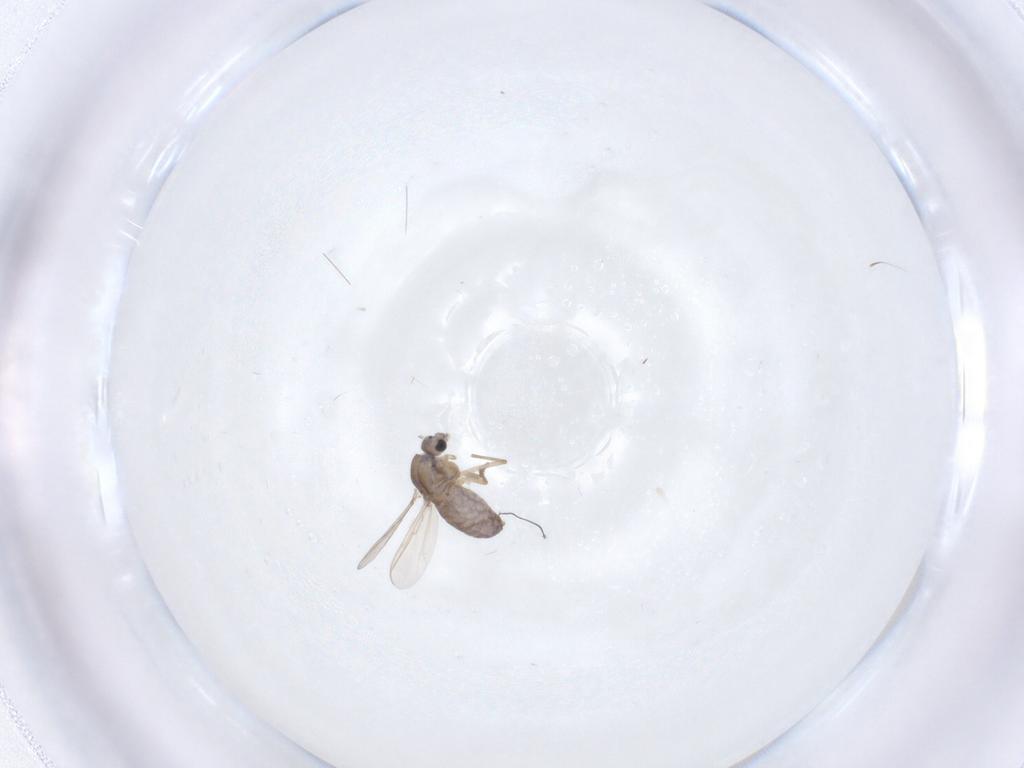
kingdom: Animalia
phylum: Arthropoda
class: Insecta
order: Diptera
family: Chironomidae
